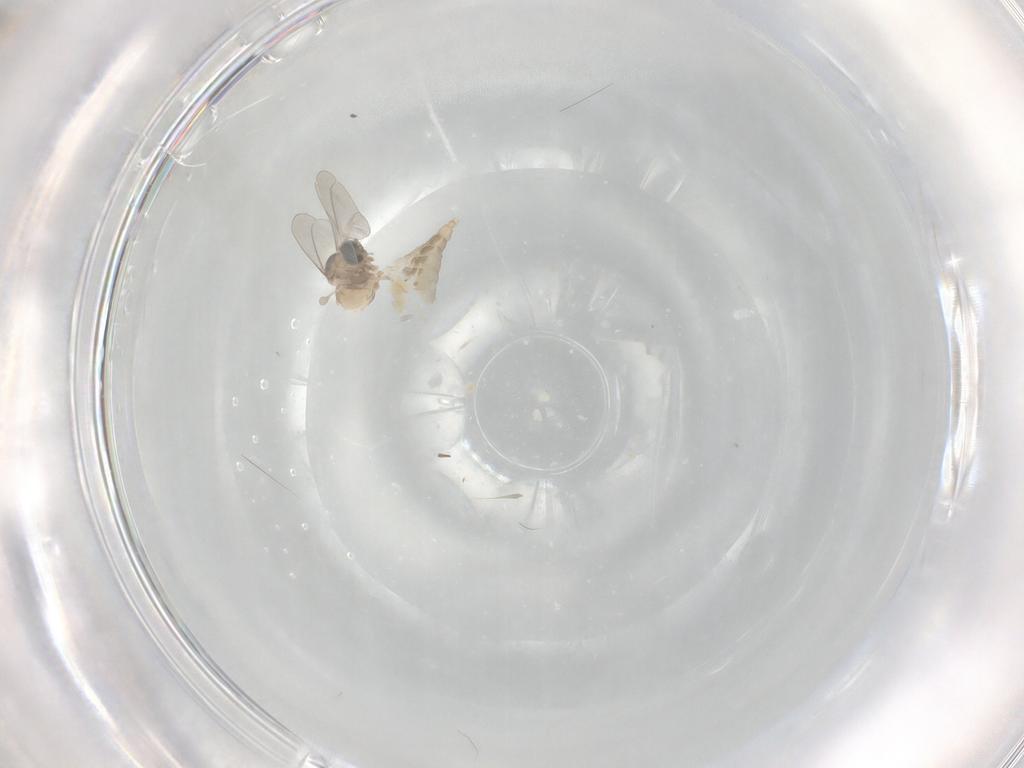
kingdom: Animalia
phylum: Arthropoda
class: Insecta
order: Diptera
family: Cecidomyiidae
